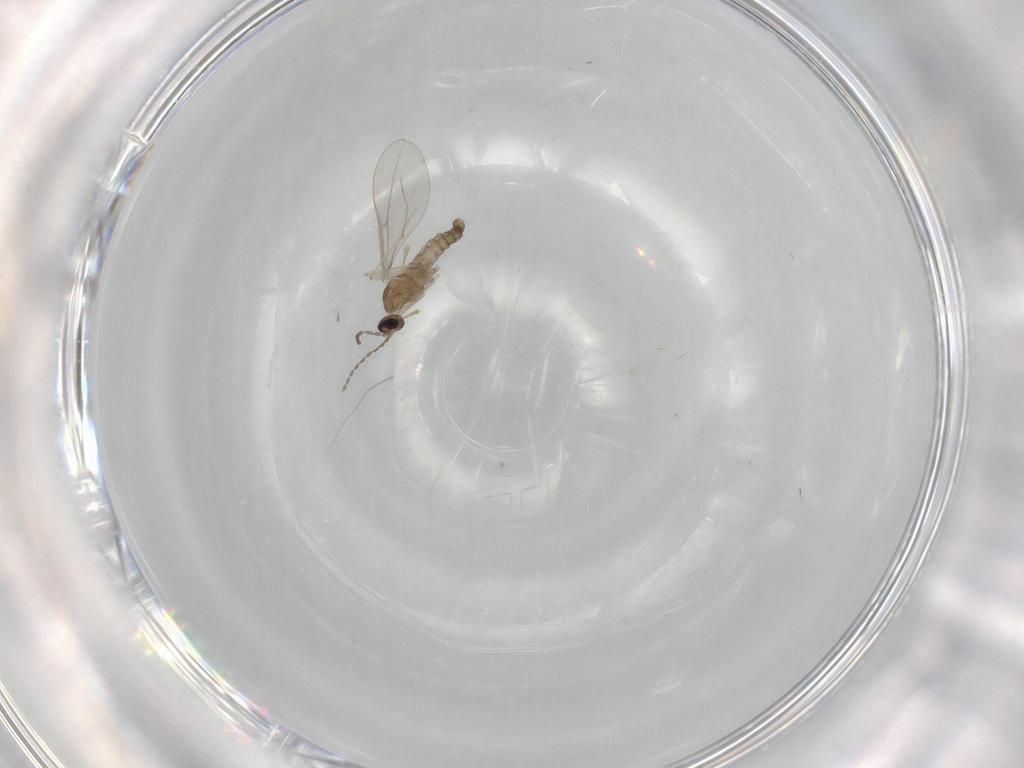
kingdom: Animalia
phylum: Arthropoda
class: Insecta
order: Diptera
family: Cecidomyiidae
